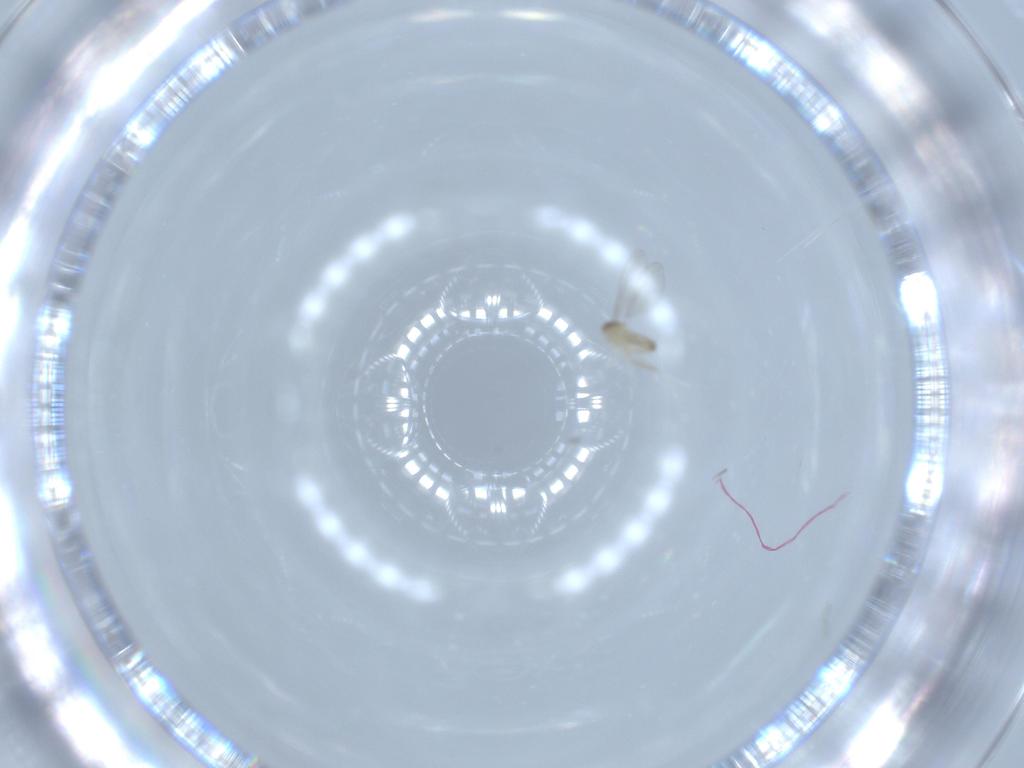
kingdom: Animalia
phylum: Arthropoda
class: Insecta
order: Diptera
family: Cecidomyiidae
